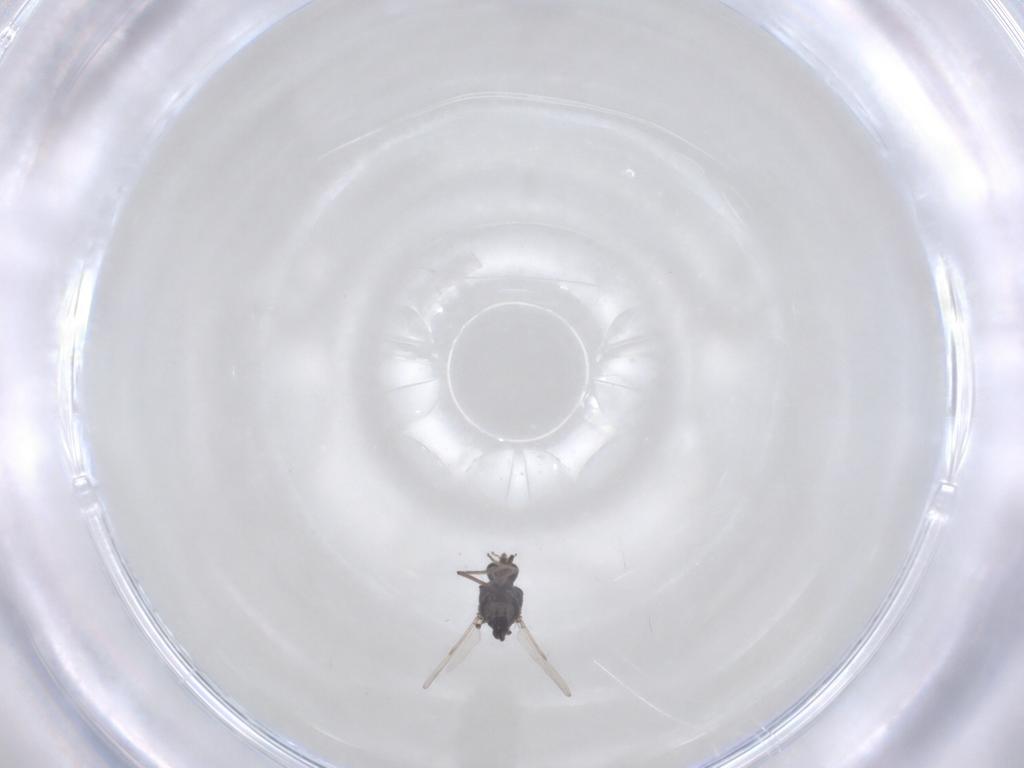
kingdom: Animalia
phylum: Arthropoda
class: Insecta
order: Diptera
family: Ceratopogonidae
